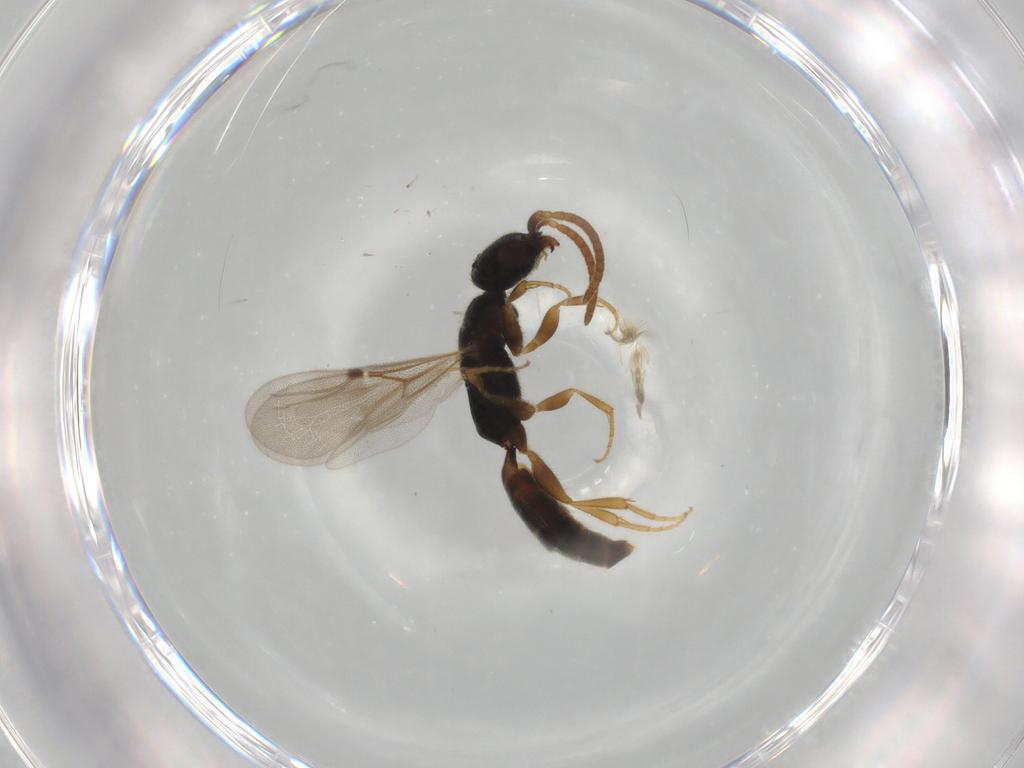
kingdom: Animalia
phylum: Arthropoda
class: Insecta
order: Hymenoptera
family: Bethylidae
